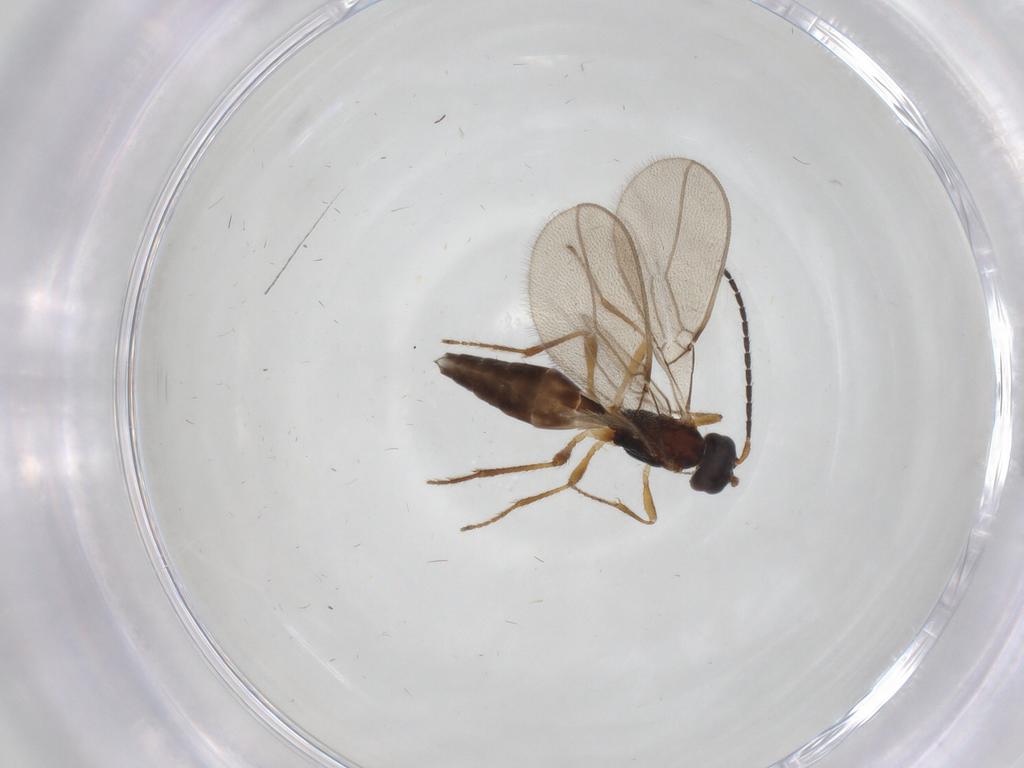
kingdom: Animalia
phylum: Arthropoda
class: Insecta
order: Hymenoptera
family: Braconidae
